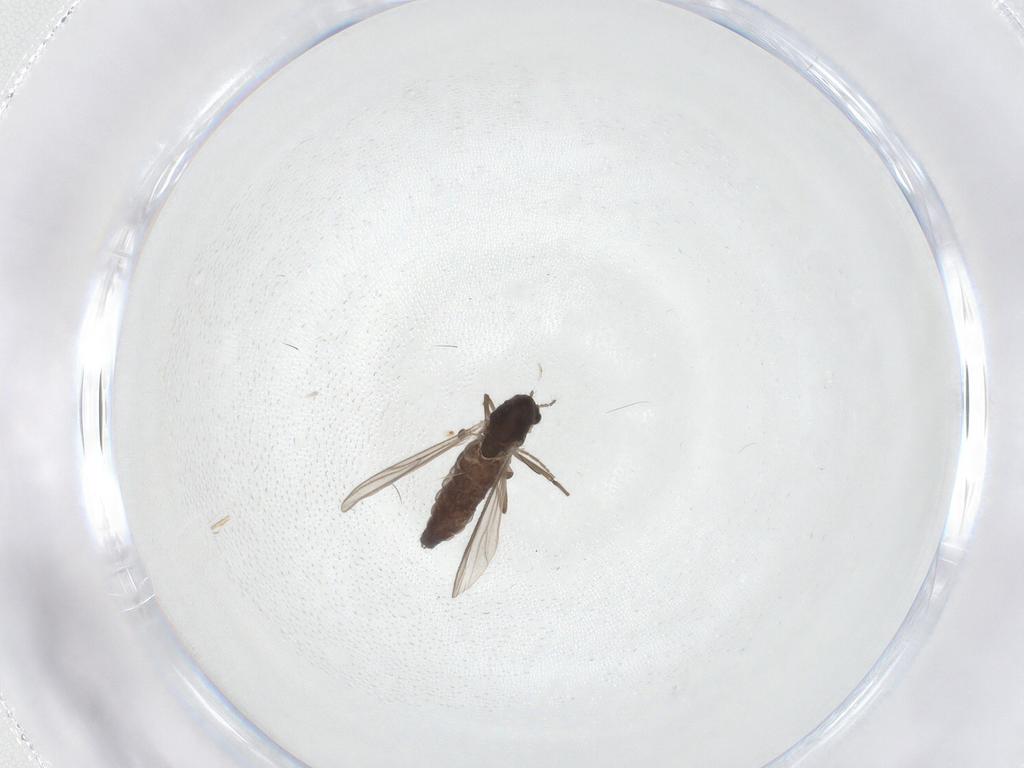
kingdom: Animalia
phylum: Arthropoda
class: Insecta
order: Diptera
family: Chironomidae
